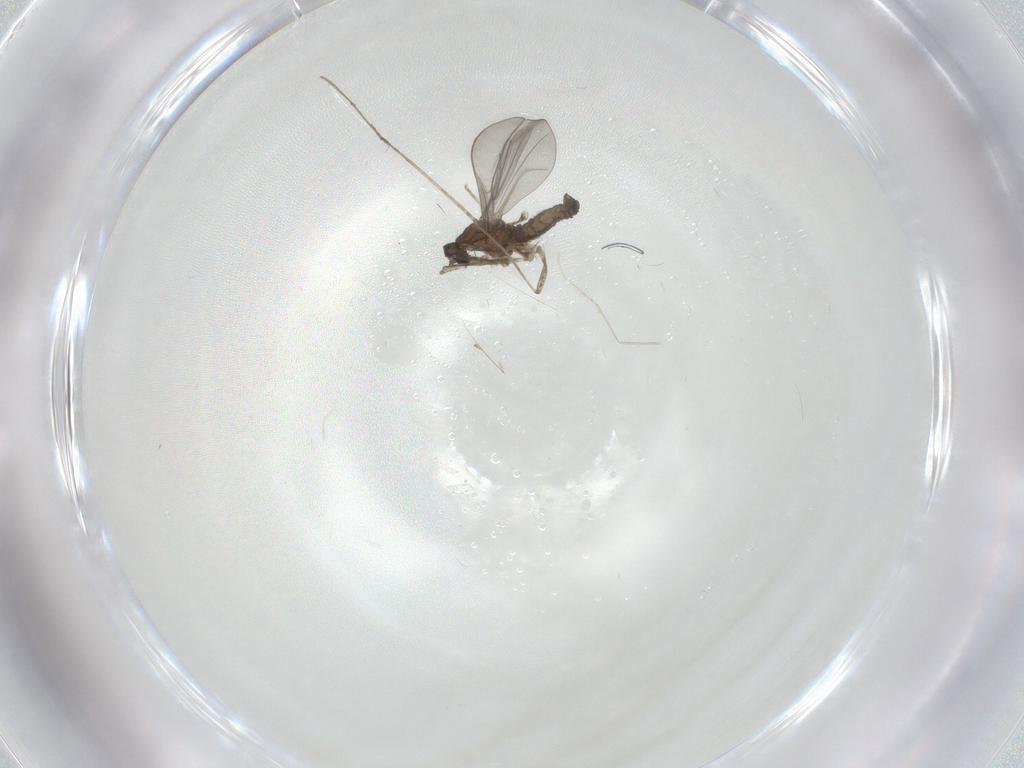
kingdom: Animalia
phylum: Arthropoda
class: Insecta
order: Diptera
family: Cecidomyiidae
